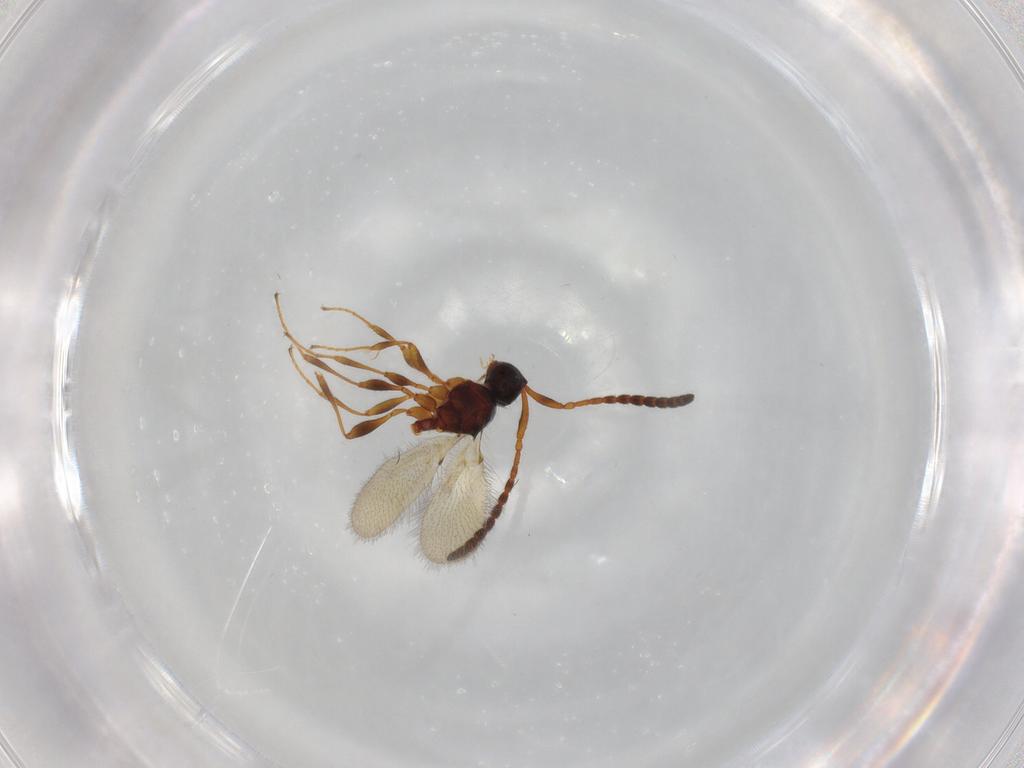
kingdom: Animalia
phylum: Arthropoda
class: Insecta
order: Hymenoptera
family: Diapriidae
